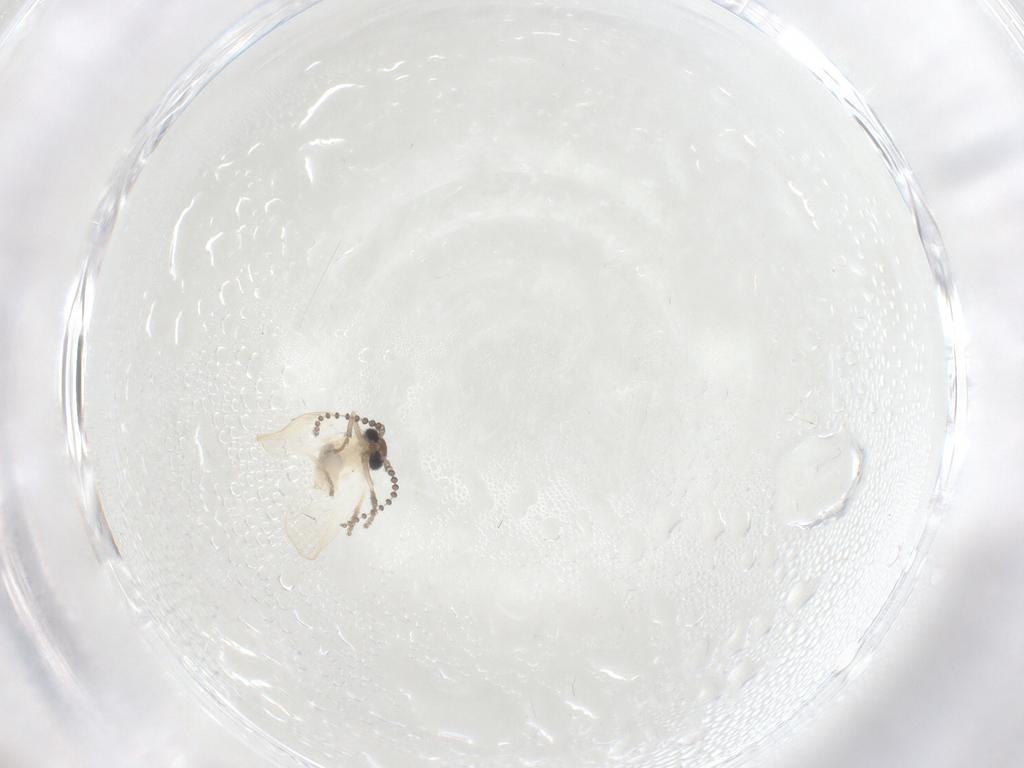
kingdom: Animalia
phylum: Arthropoda
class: Insecta
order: Diptera
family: Psychodidae
